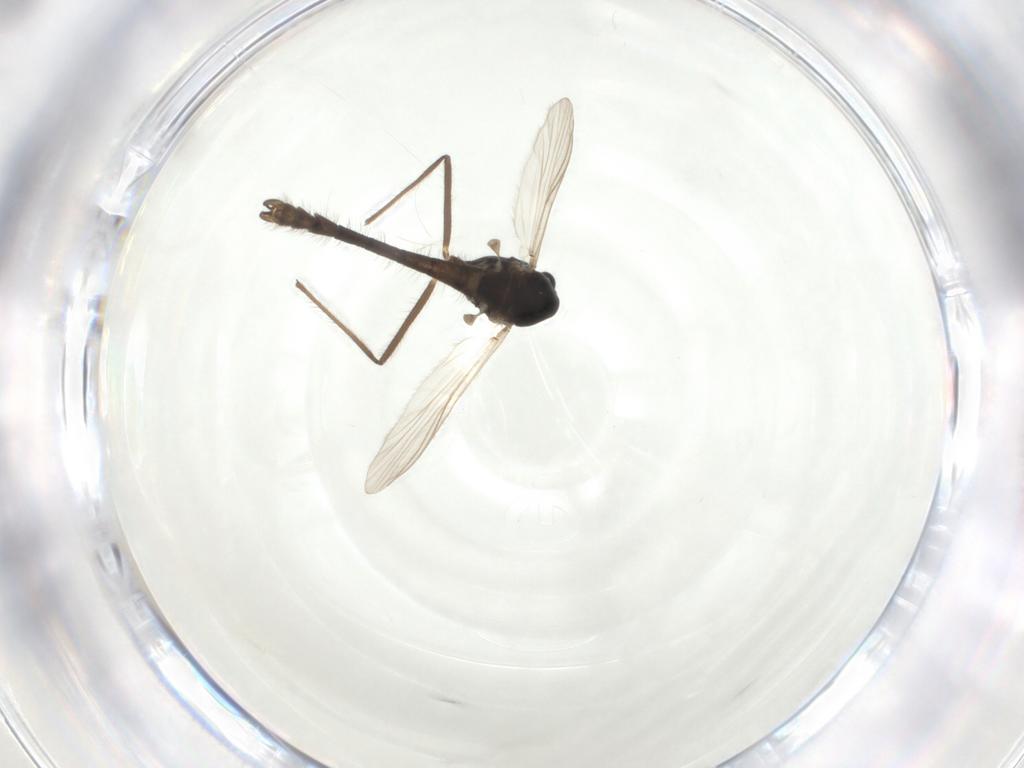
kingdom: Animalia
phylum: Arthropoda
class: Insecta
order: Diptera
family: Chironomidae
